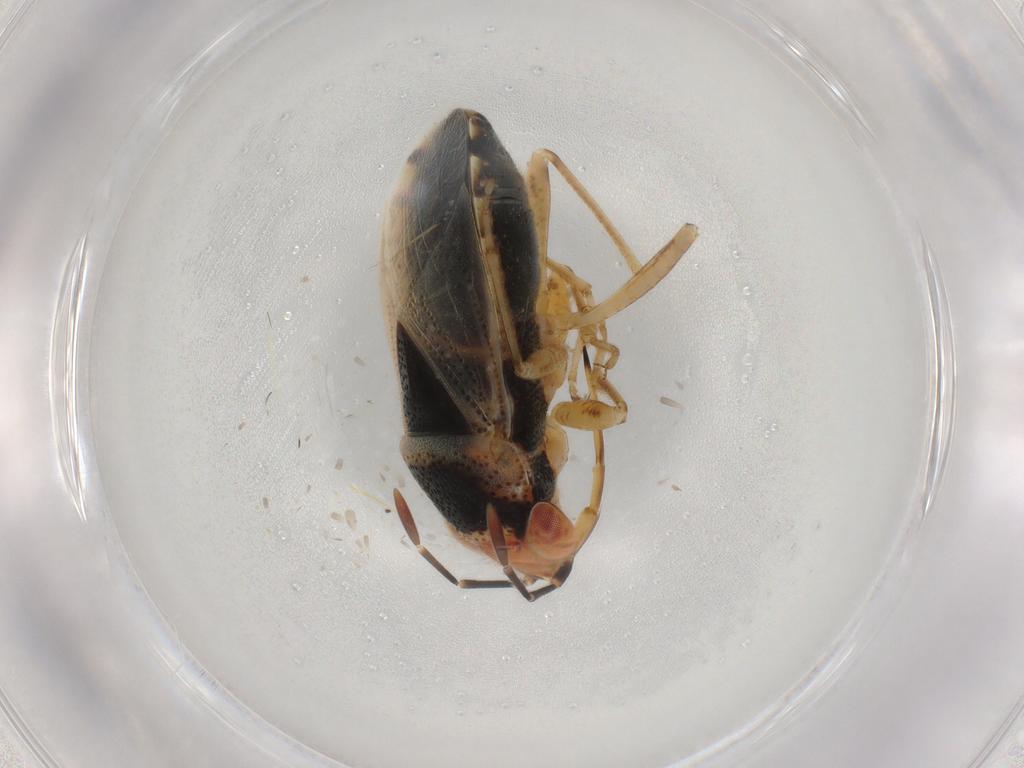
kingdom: Animalia
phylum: Arthropoda
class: Insecta
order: Hemiptera
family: Geocoridae
